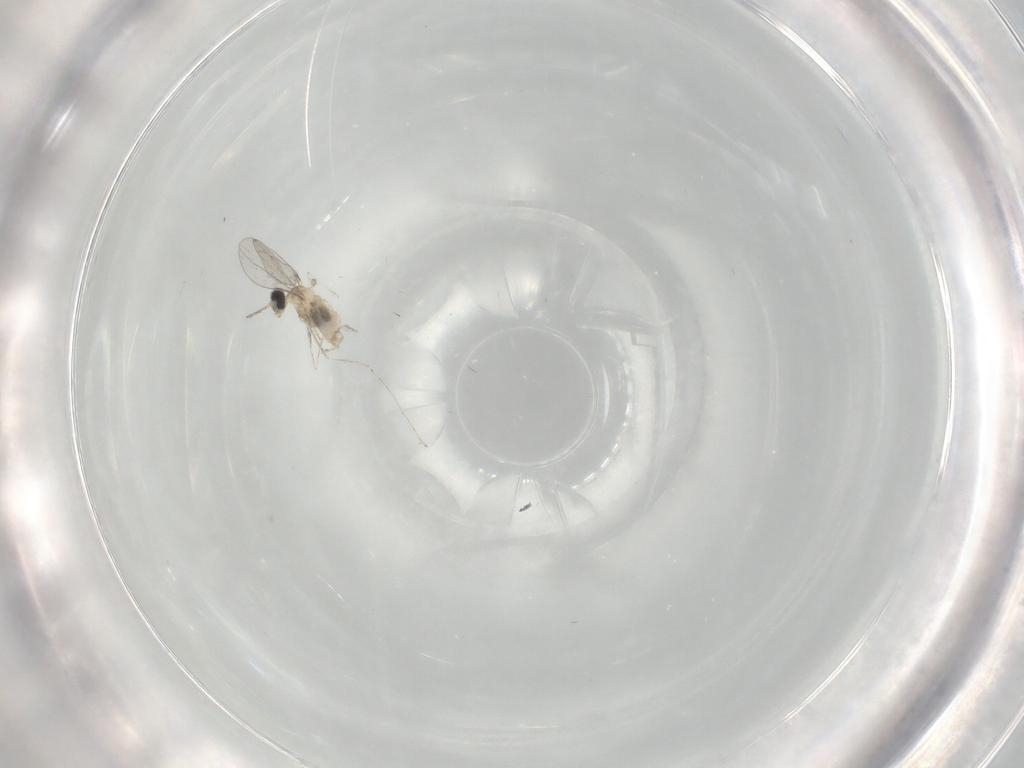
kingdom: Animalia
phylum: Arthropoda
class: Insecta
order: Diptera
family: Cecidomyiidae
